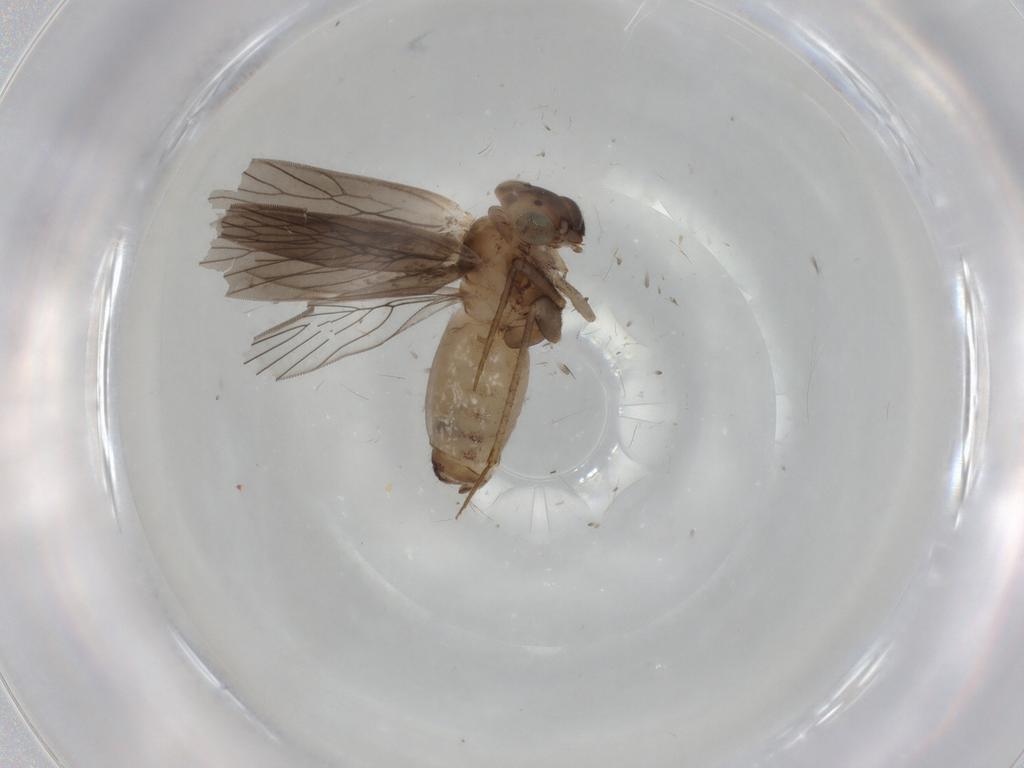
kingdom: Animalia
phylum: Arthropoda
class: Insecta
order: Psocodea
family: Lepidopsocidae
